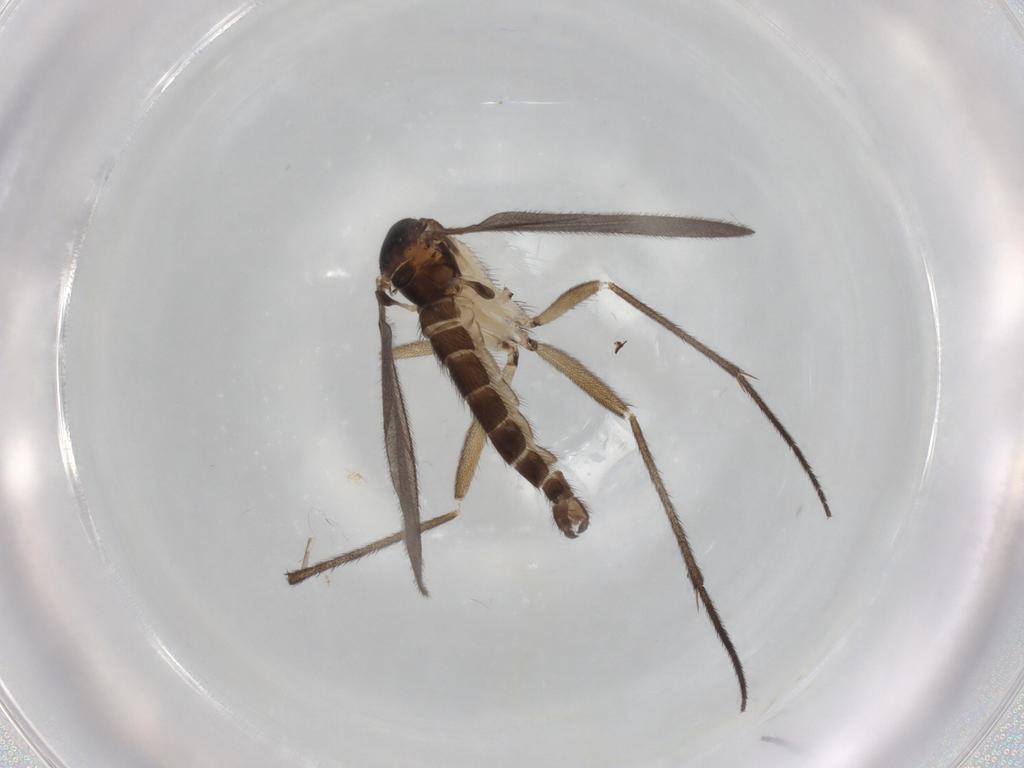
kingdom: Animalia
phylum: Arthropoda
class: Insecta
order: Diptera
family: Sciaridae
